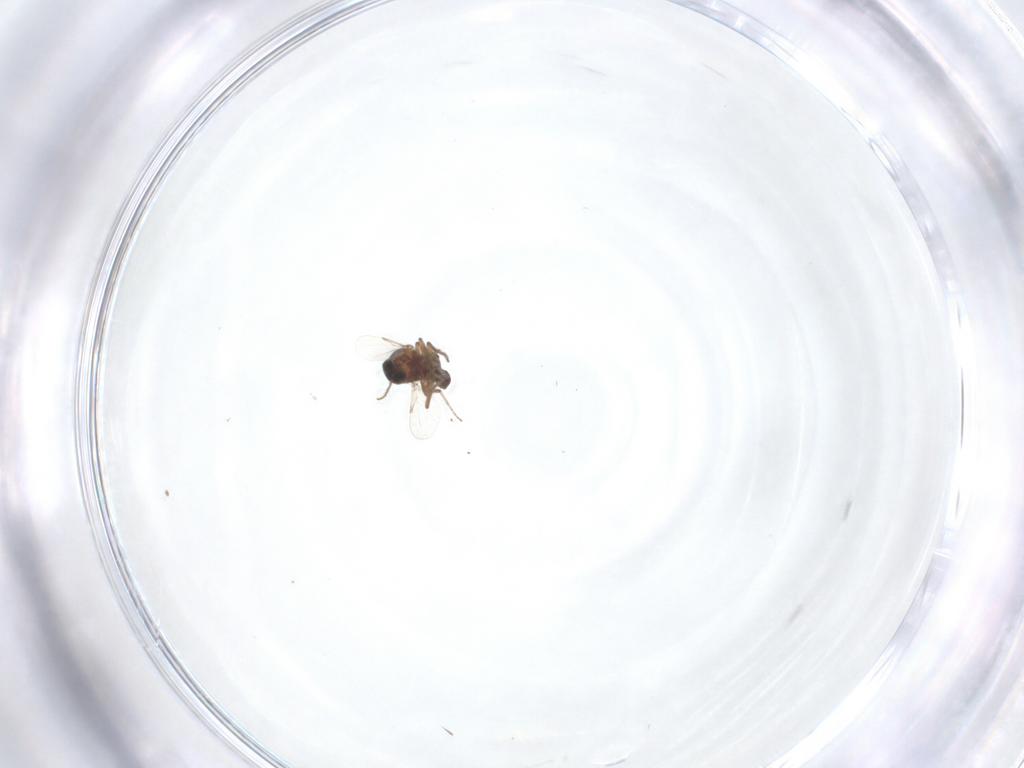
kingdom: Animalia
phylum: Arthropoda
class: Insecta
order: Diptera
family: Ceratopogonidae
